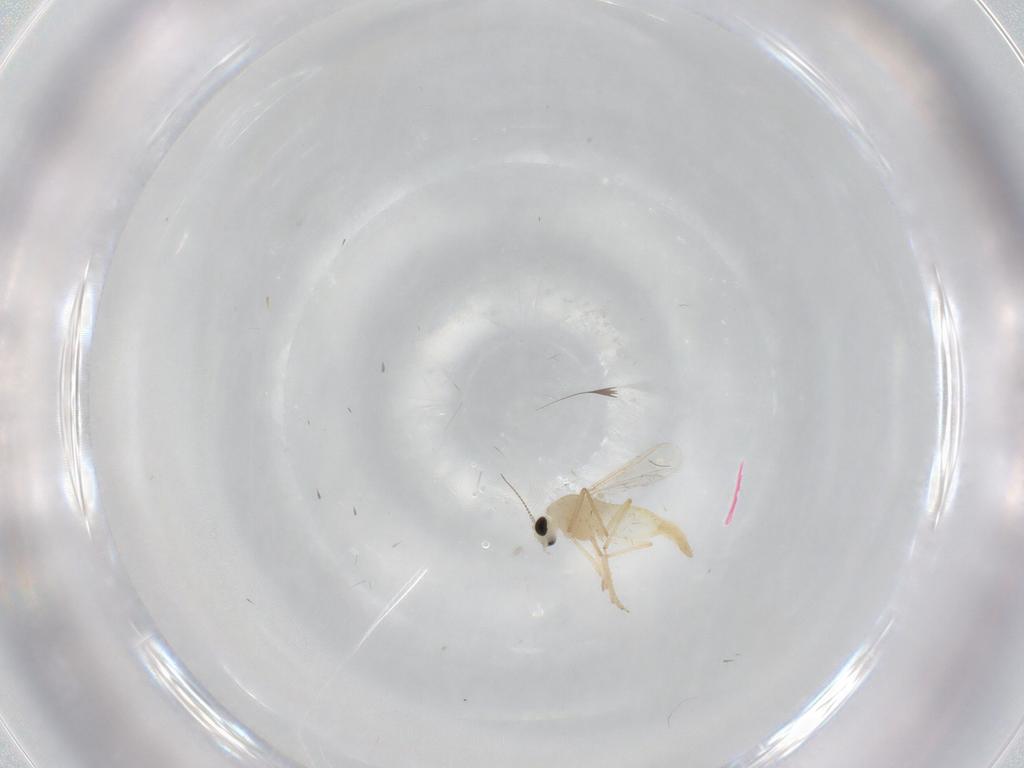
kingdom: Animalia
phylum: Arthropoda
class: Insecta
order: Diptera
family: Chironomidae
